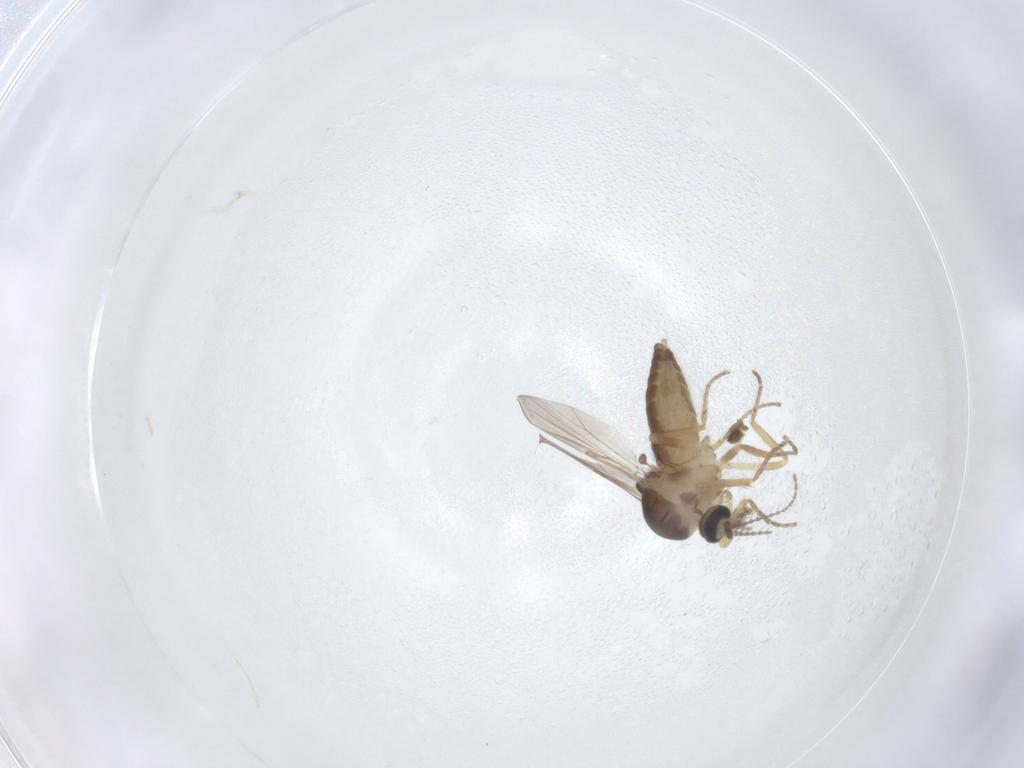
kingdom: Animalia
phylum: Arthropoda
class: Insecta
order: Diptera
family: Ceratopogonidae
